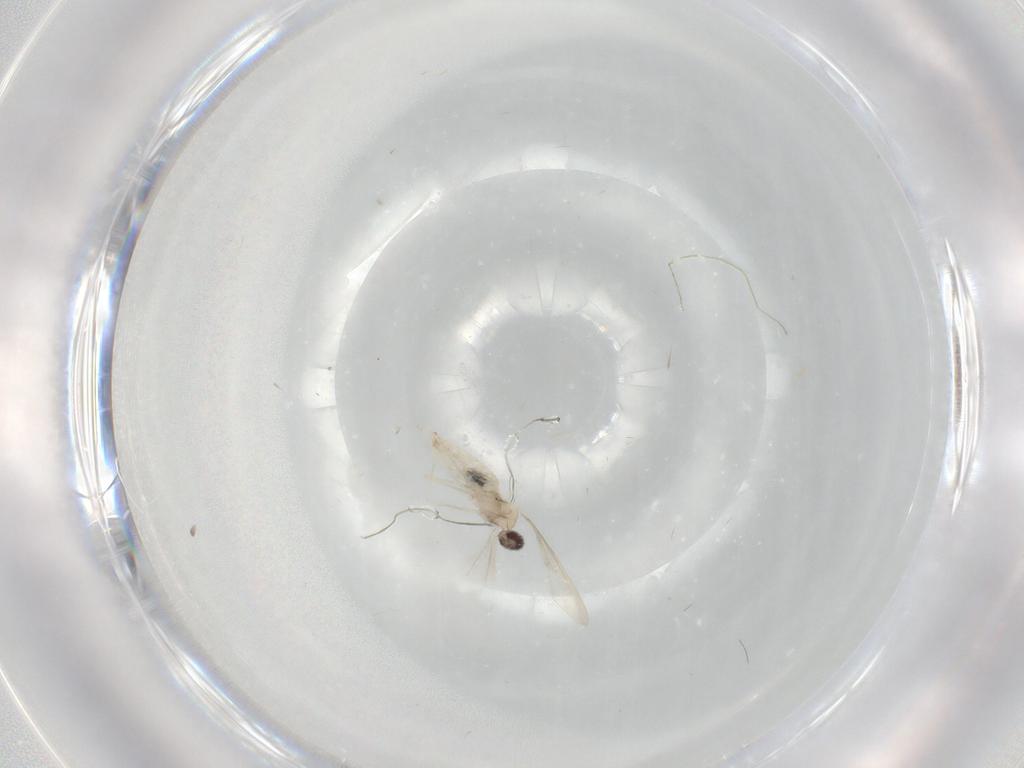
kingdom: Animalia
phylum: Arthropoda
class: Insecta
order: Diptera
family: Cecidomyiidae
